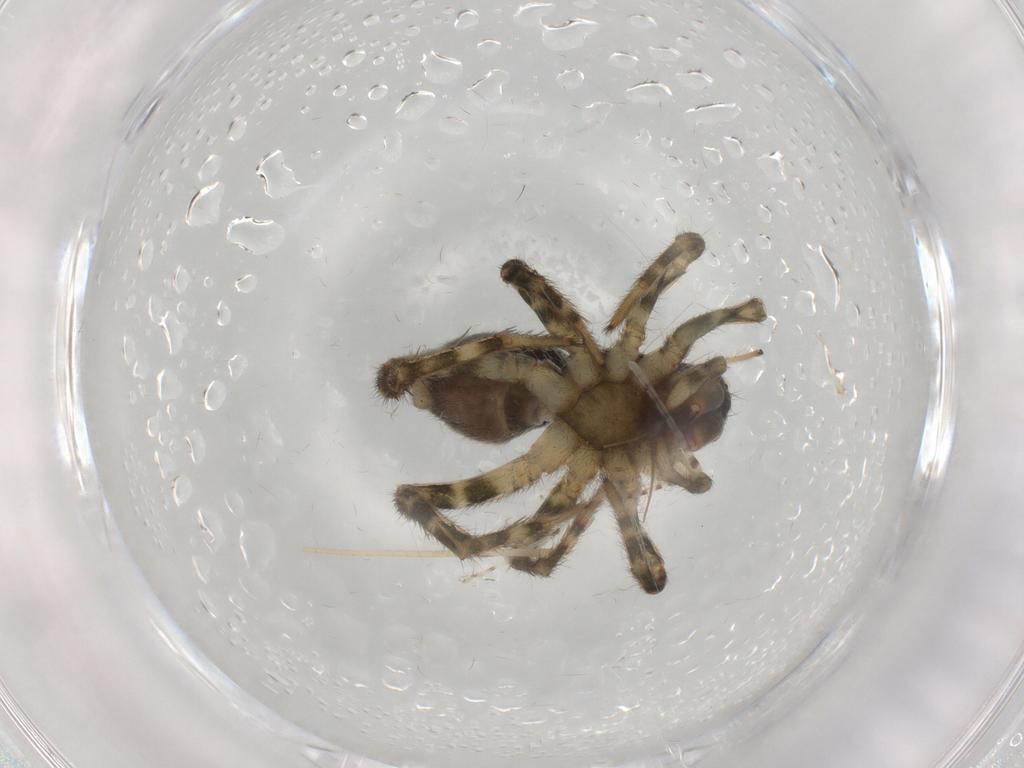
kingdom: Animalia
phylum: Arthropoda
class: Arachnida
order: Araneae
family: Lycosidae
